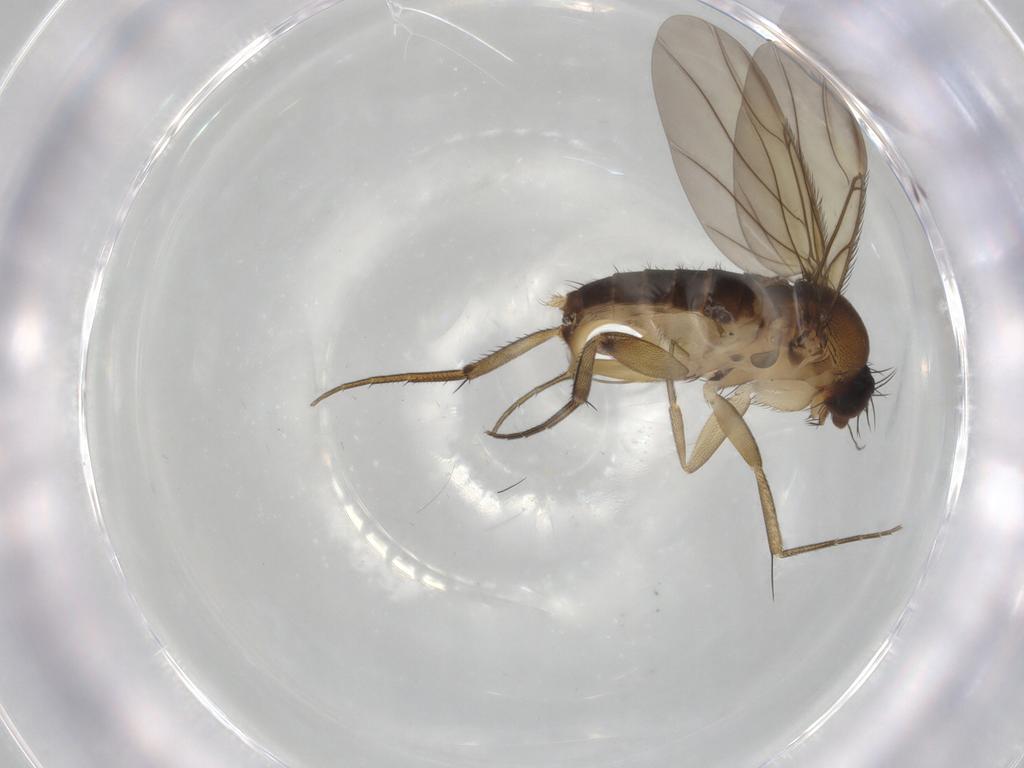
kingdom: Animalia
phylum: Arthropoda
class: Insecta
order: Diptera
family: Phoridae
